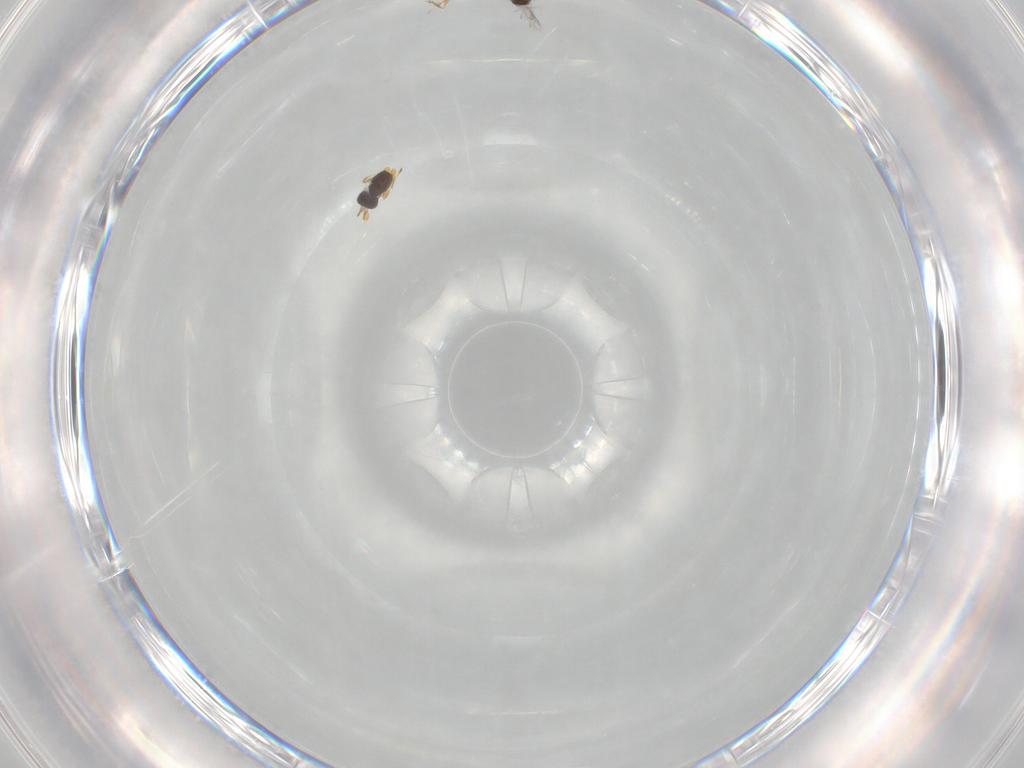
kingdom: Animalia
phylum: Arthropoda
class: Insecta
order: Hymenoptera
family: Mymaridae
